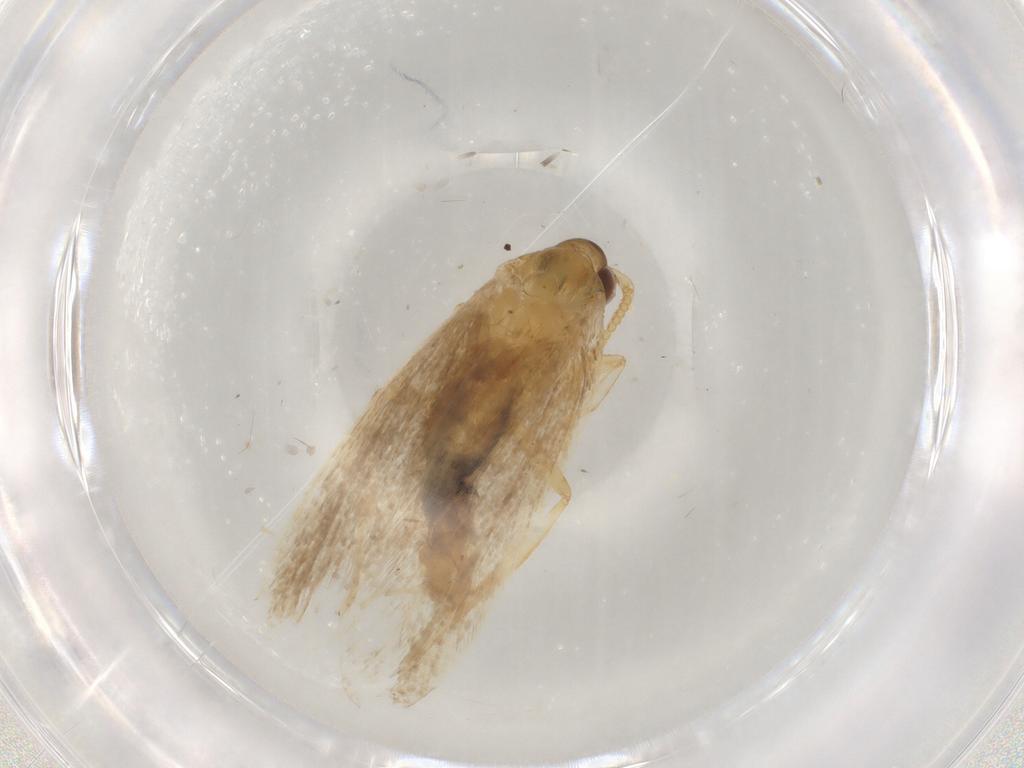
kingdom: Animalia
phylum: Arthropoda
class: Insecta
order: Lepidoptera
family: Lecithoceridae
